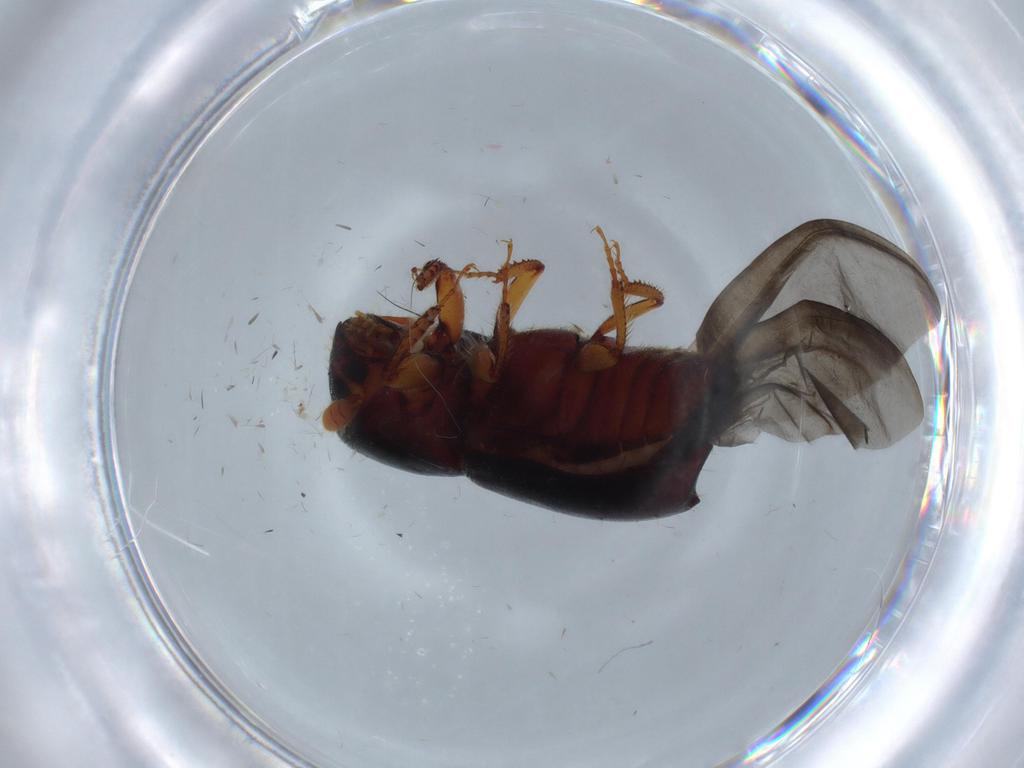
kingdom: Animalia
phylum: Arthropoda
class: Insecta
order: Coleoptera
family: Curculionidae
